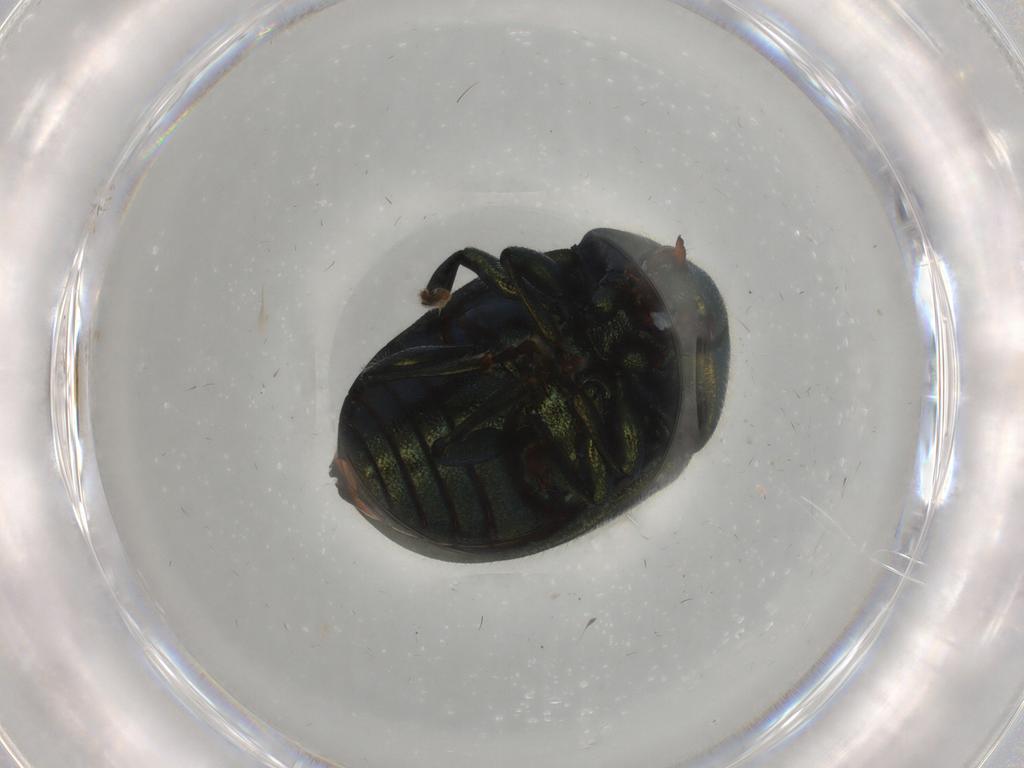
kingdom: Animalia
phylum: Arthropoda
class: Insecta
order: Coleoptera
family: Chrysomelidae
